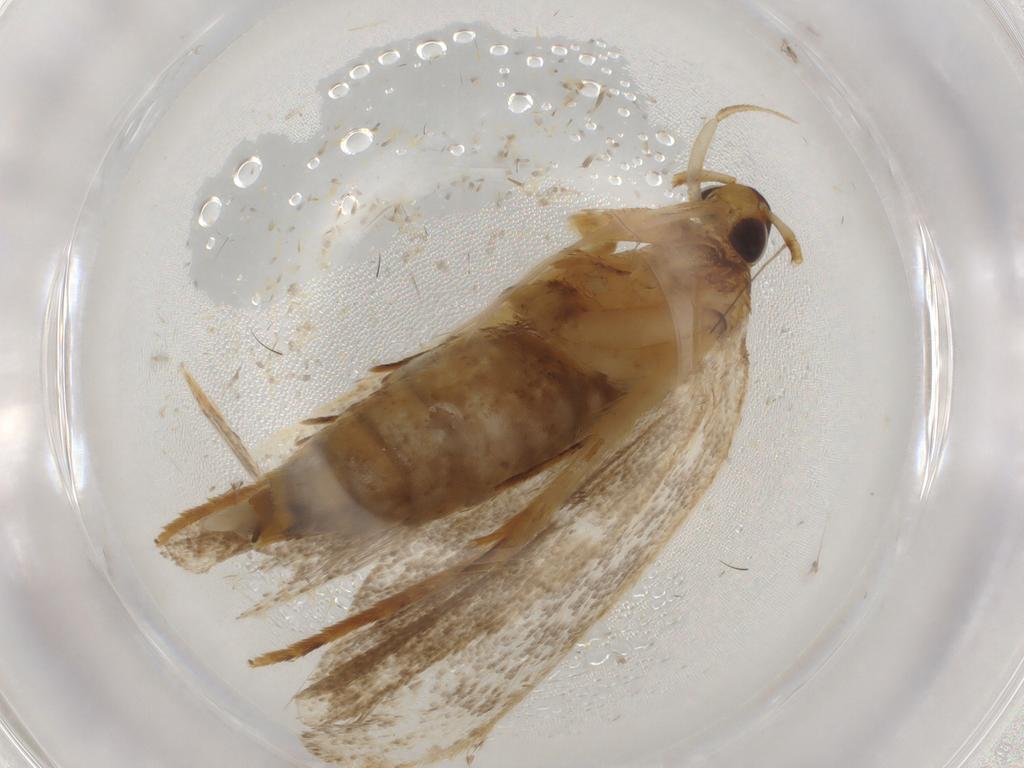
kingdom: Animalia
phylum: Arthropoda
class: Insecta
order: Lepidoptera
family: Lecithoceridae
